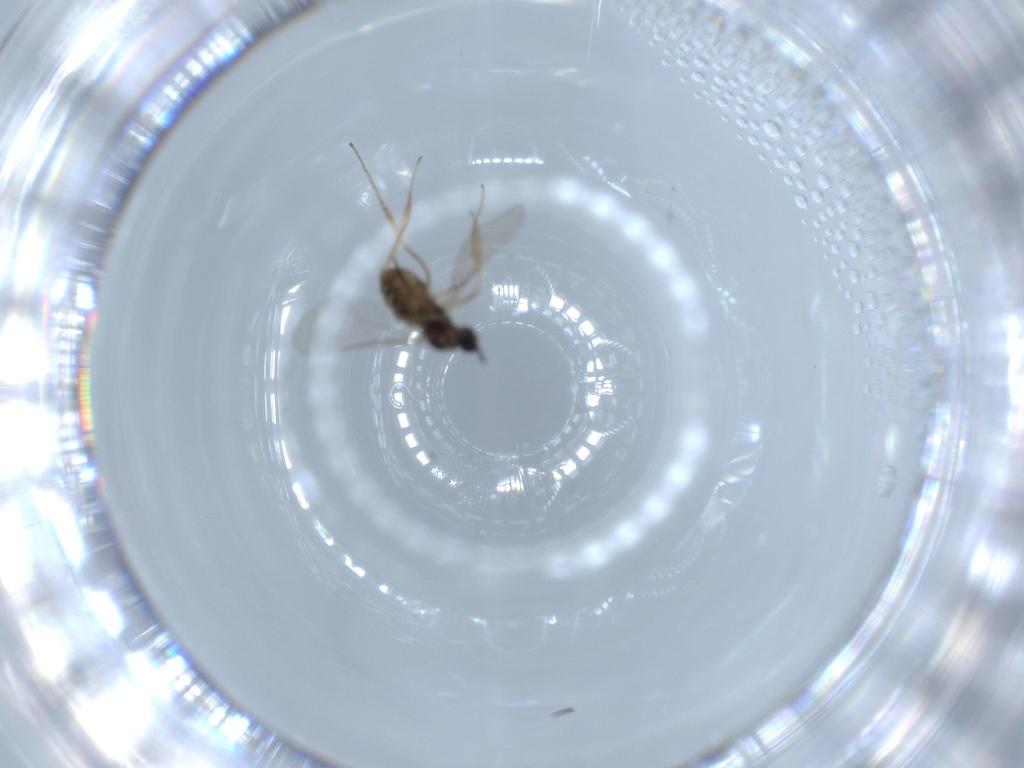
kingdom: Animalia
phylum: Arthropoda
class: Insecta
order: Diptera
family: Cecidomyiidae
